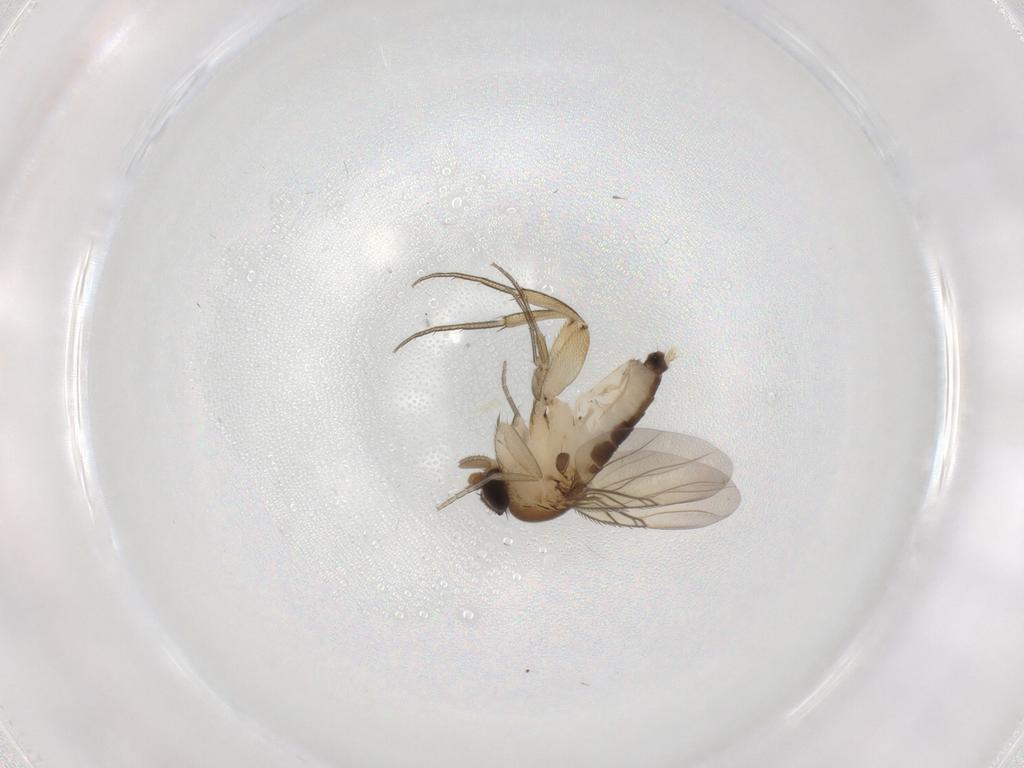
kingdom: Animalia
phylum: Arthropoda
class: Insecta
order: Diptera
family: Phoridae
